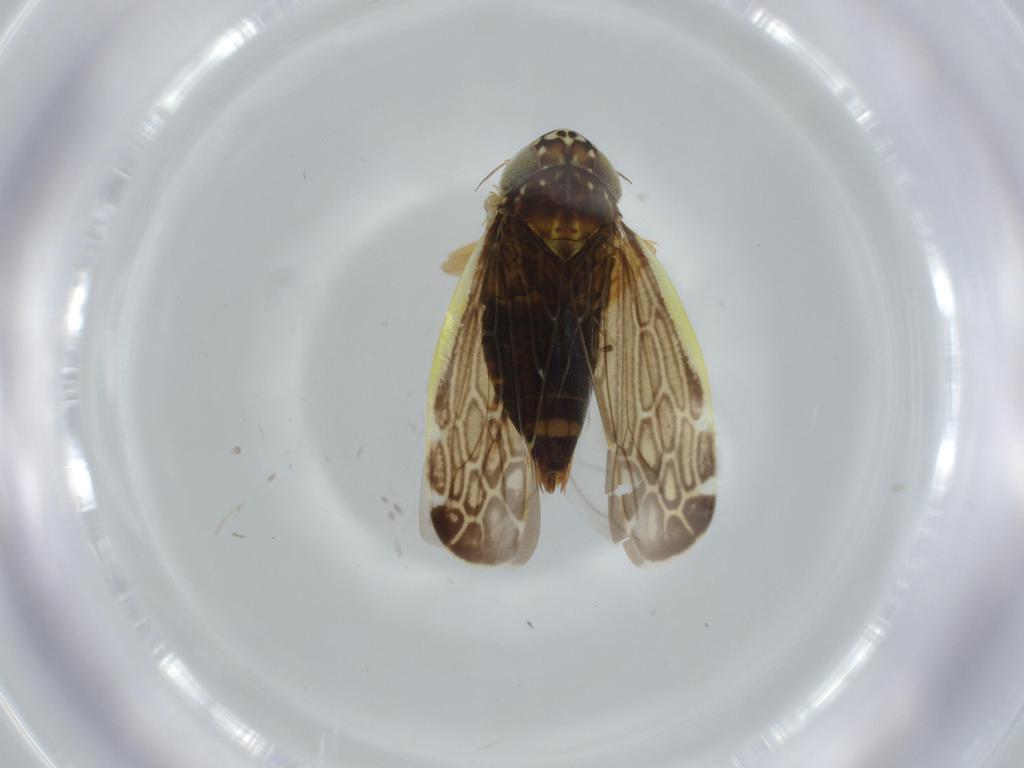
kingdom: Animalia
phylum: Arthropoda
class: Insecta
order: Hemiptera
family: Cicadellidae
